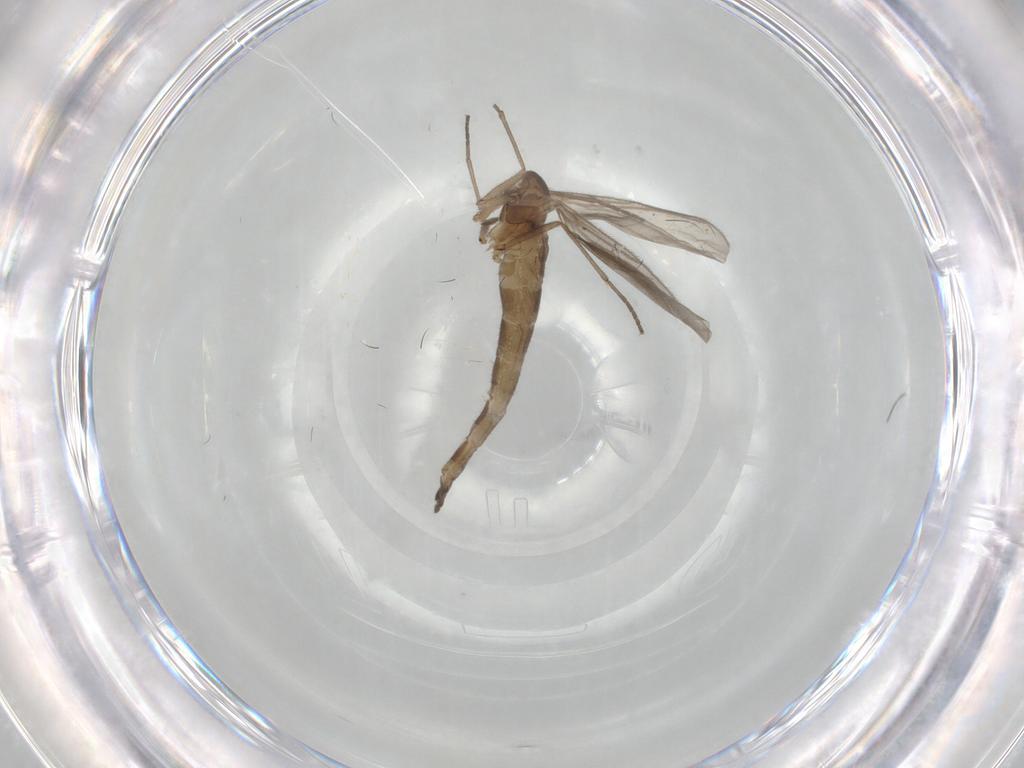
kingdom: Animalia
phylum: Arthropoda
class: Insecta
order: Diptera
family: Sciaridae
